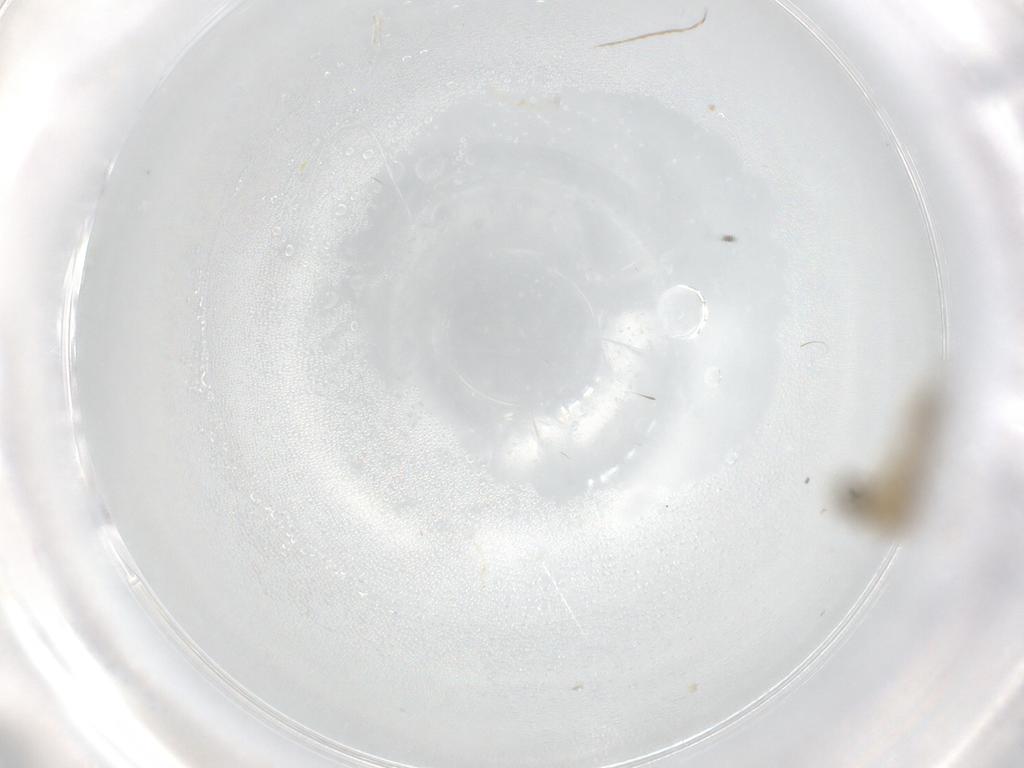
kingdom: Animalia
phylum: Arthropoda
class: Insecta
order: Diptera
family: Chironomidae
